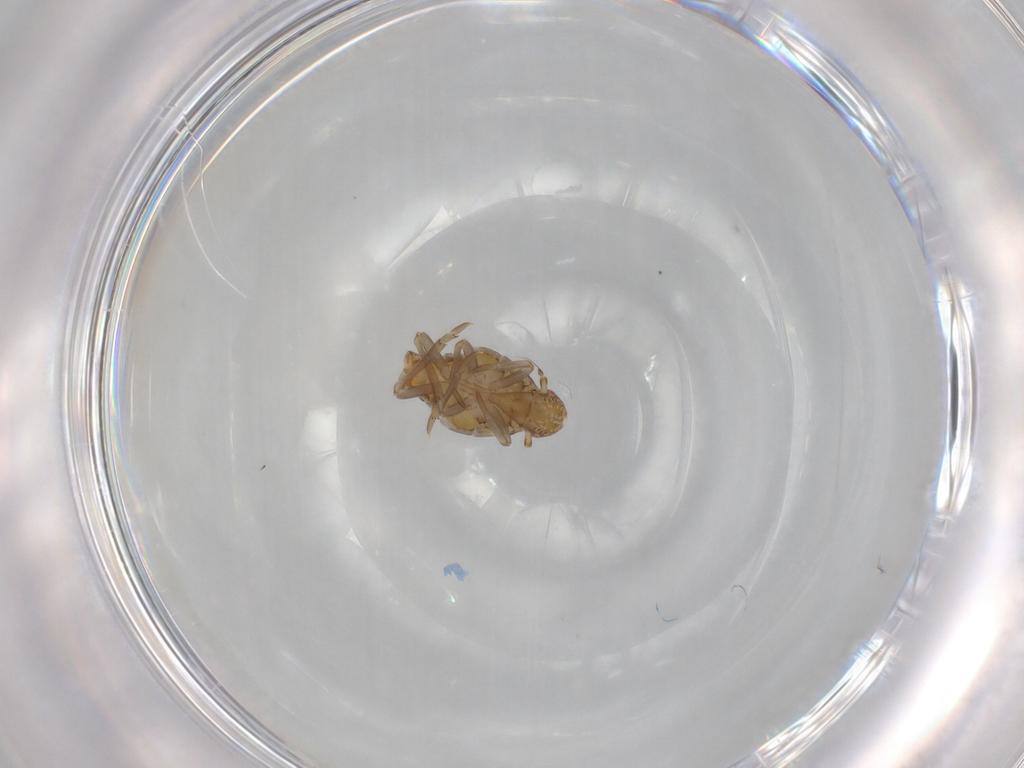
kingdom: Animalia
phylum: Arthropoda
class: Insecta
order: Hemiptera
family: Flatidae
